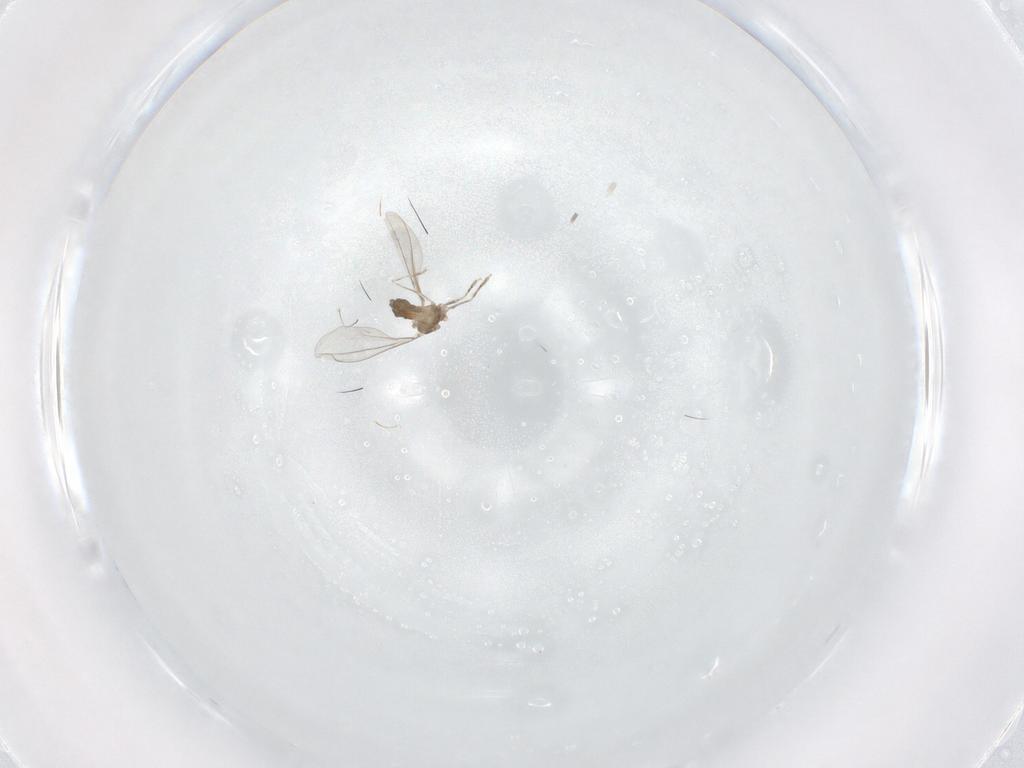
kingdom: Animalia
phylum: Arthropoda
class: Insecta
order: Diptera
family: Cecidomyiidae
